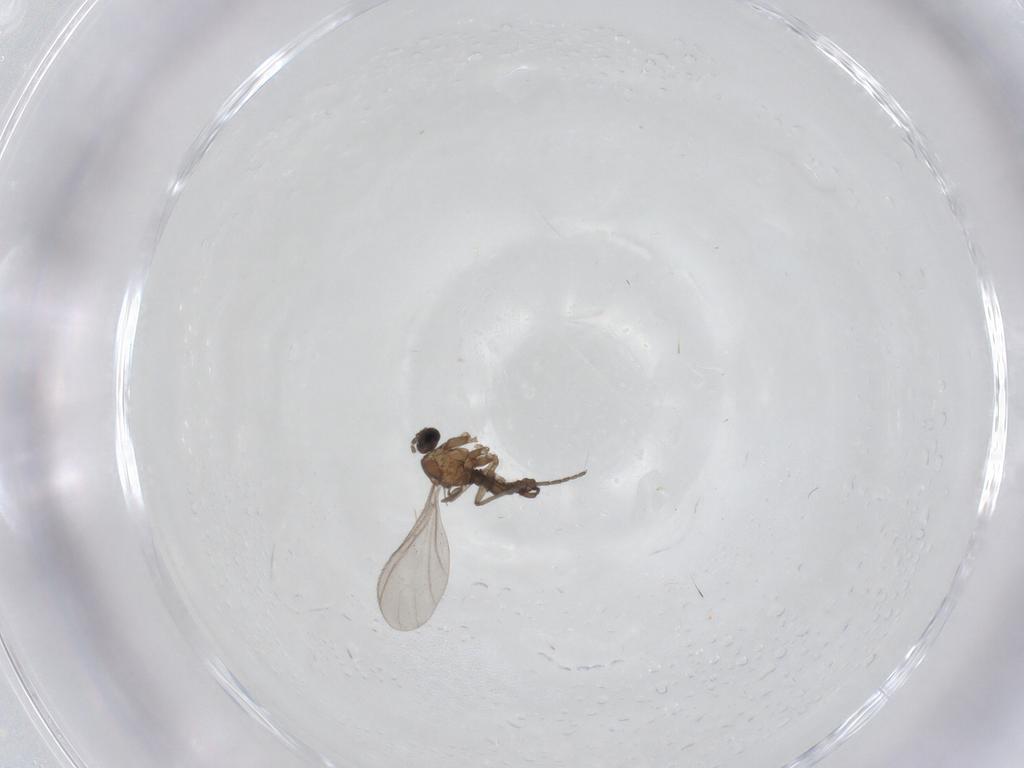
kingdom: Animalia
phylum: Arthropoda
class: Insecta
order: Diptera
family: Sciaridae
